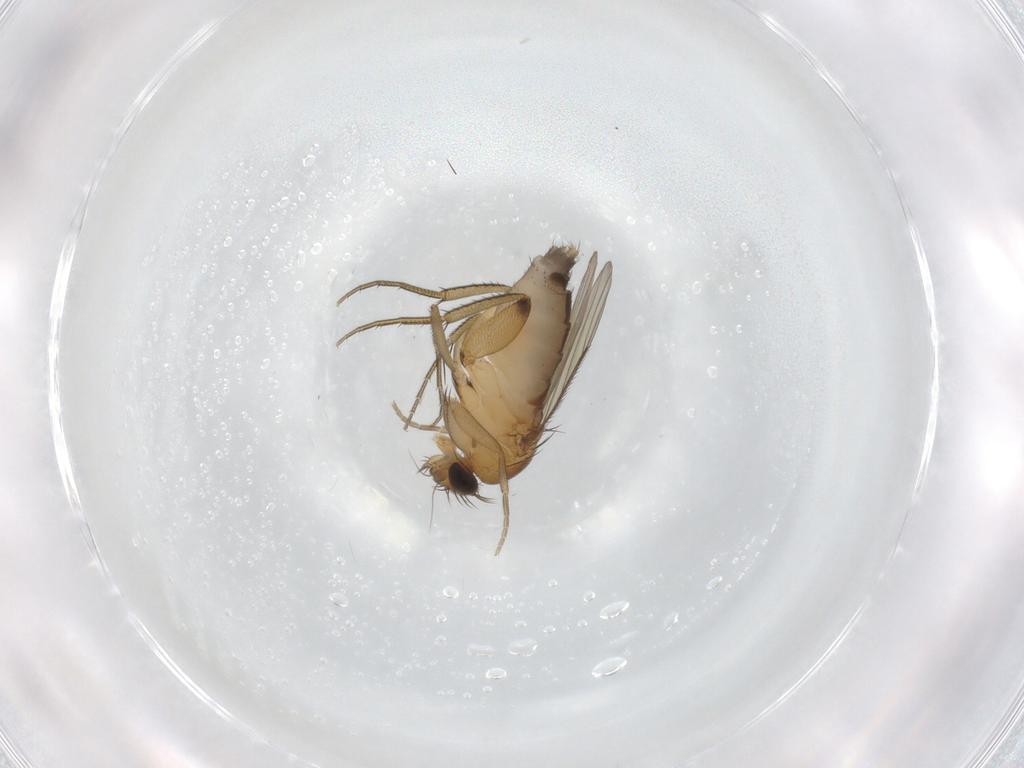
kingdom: Animalia
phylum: Arthropoda
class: Insecta
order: Diptera
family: Phoridae
